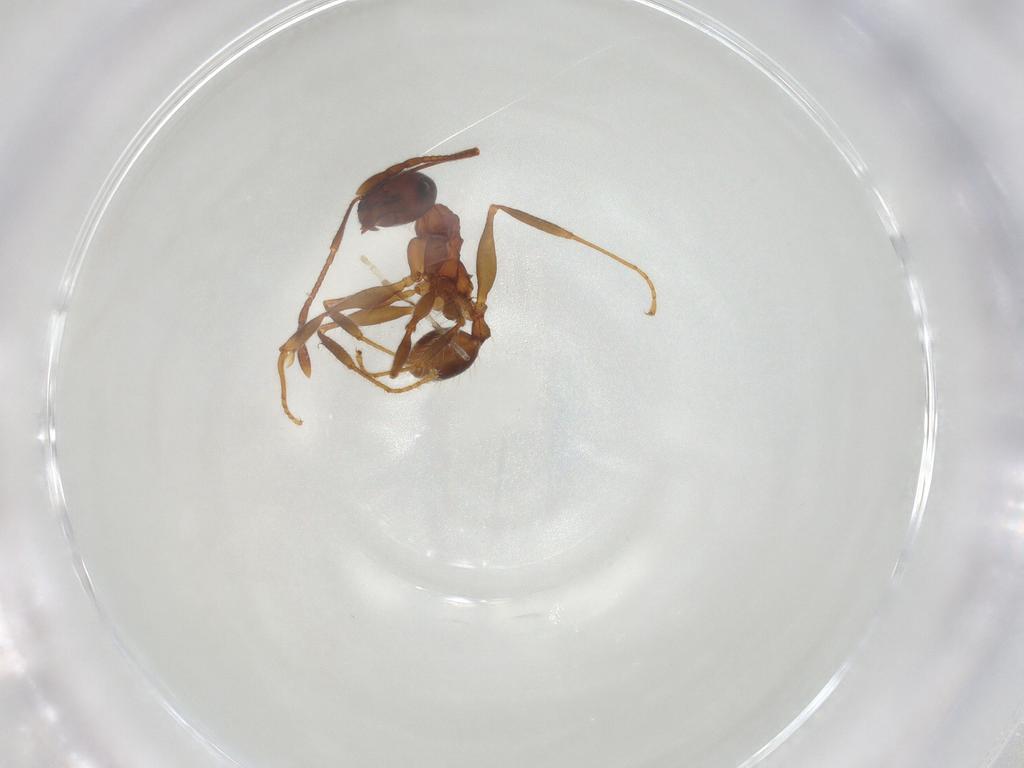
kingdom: Animalia
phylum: Arthropoda
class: Insecta
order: Hymenoptera
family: Formicidae
